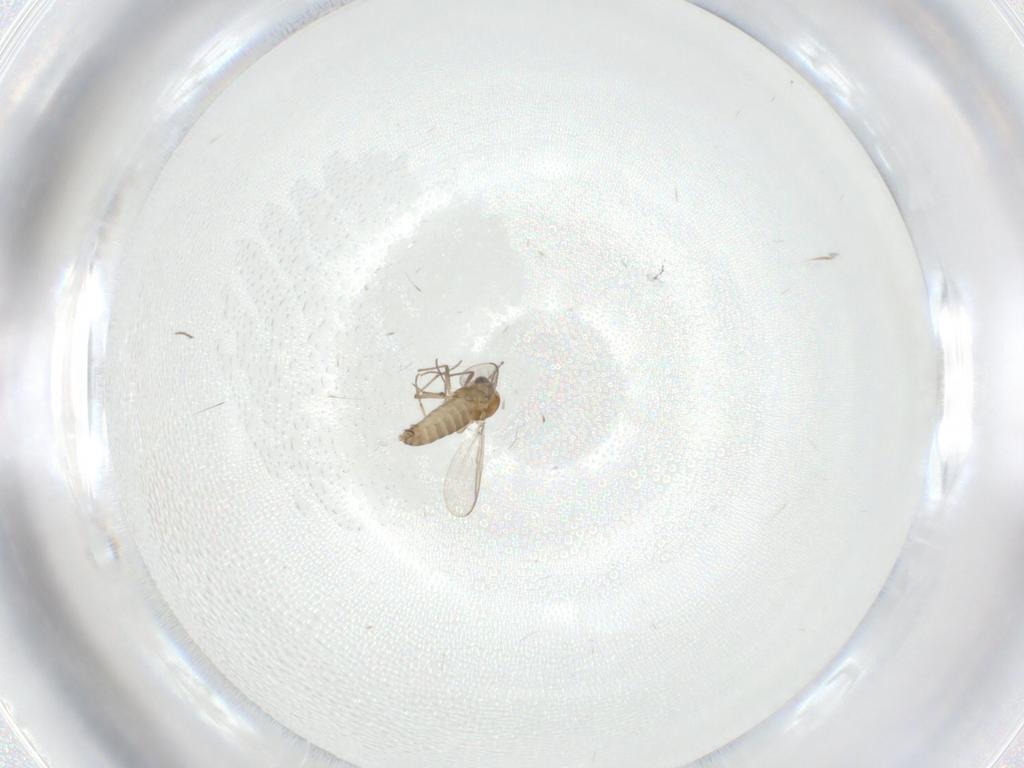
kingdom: Animalia
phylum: Arthropoda
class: Insecta
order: Diptera
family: Chironomidae
